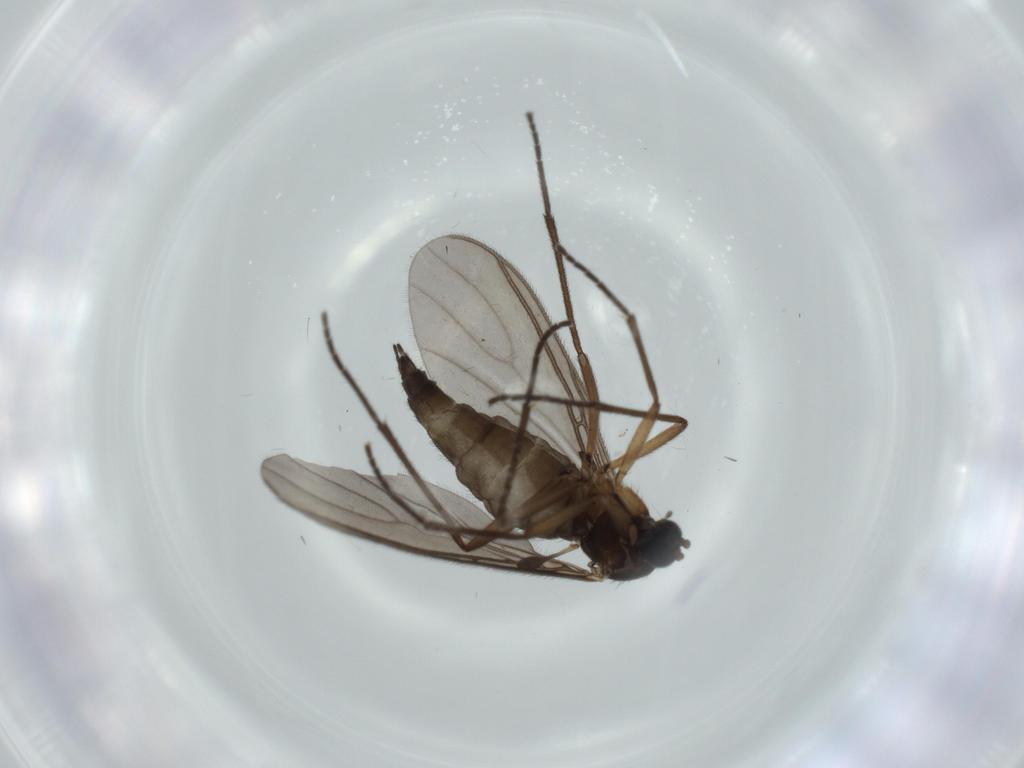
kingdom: Animalia
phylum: Arthropoda
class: Insecta
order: Diptera
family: Sciaridae
